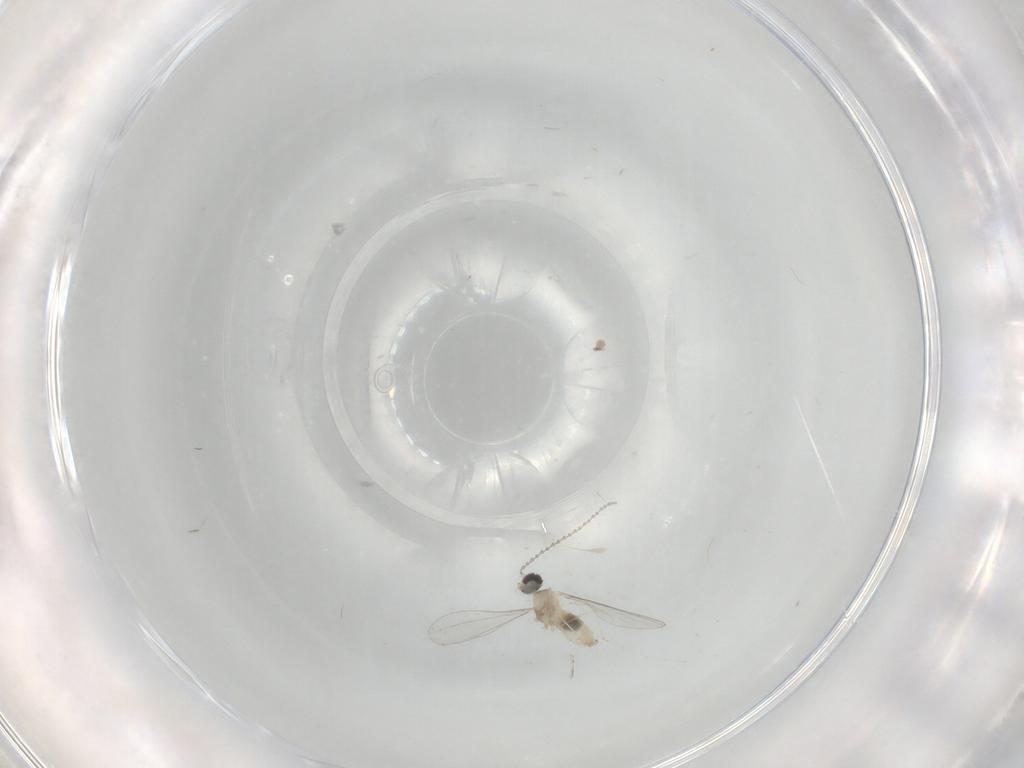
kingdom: Animalia
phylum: Arthropoda
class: Insecta
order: Diptera
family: Cecidomyiidae
